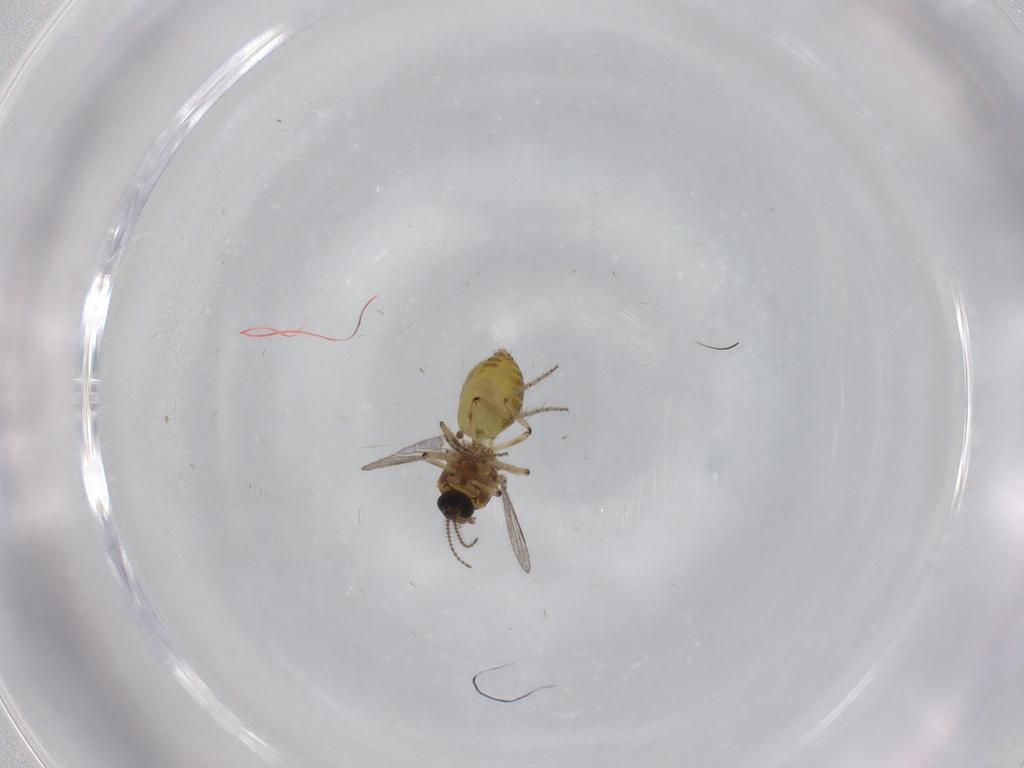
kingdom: Animalia
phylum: Arthropoda
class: Insecta
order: Diptera
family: Ceratopogonidae
